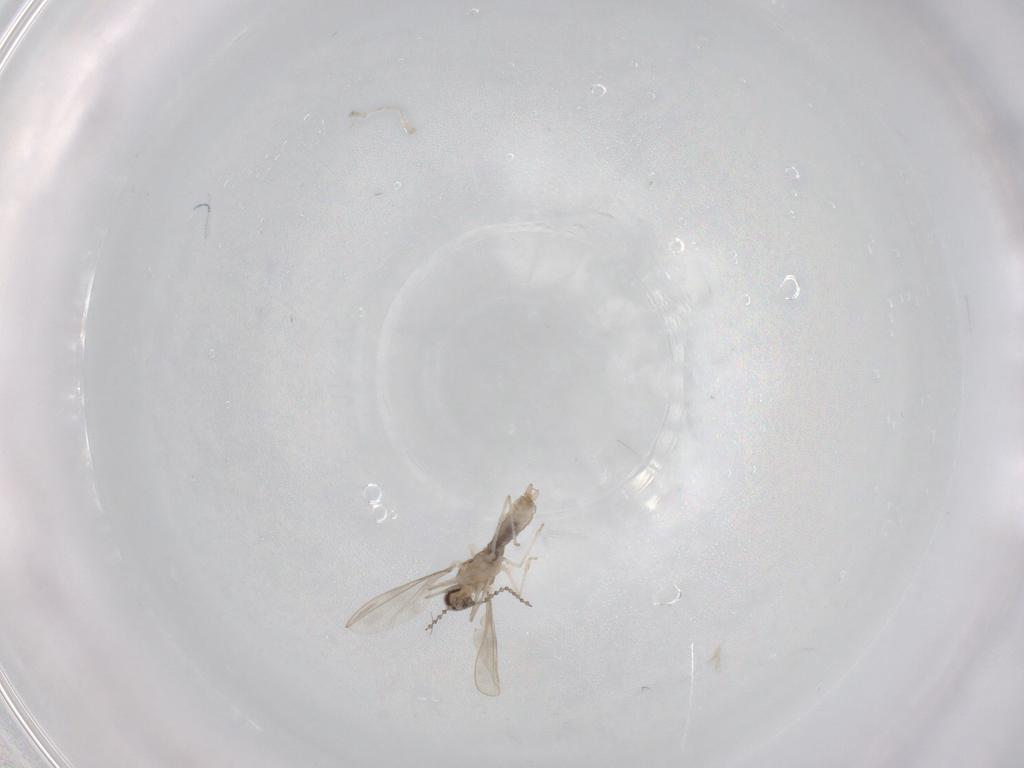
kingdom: Animalia
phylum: Arthropoda
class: Insecta
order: Diptera
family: Cecidomyiidae
